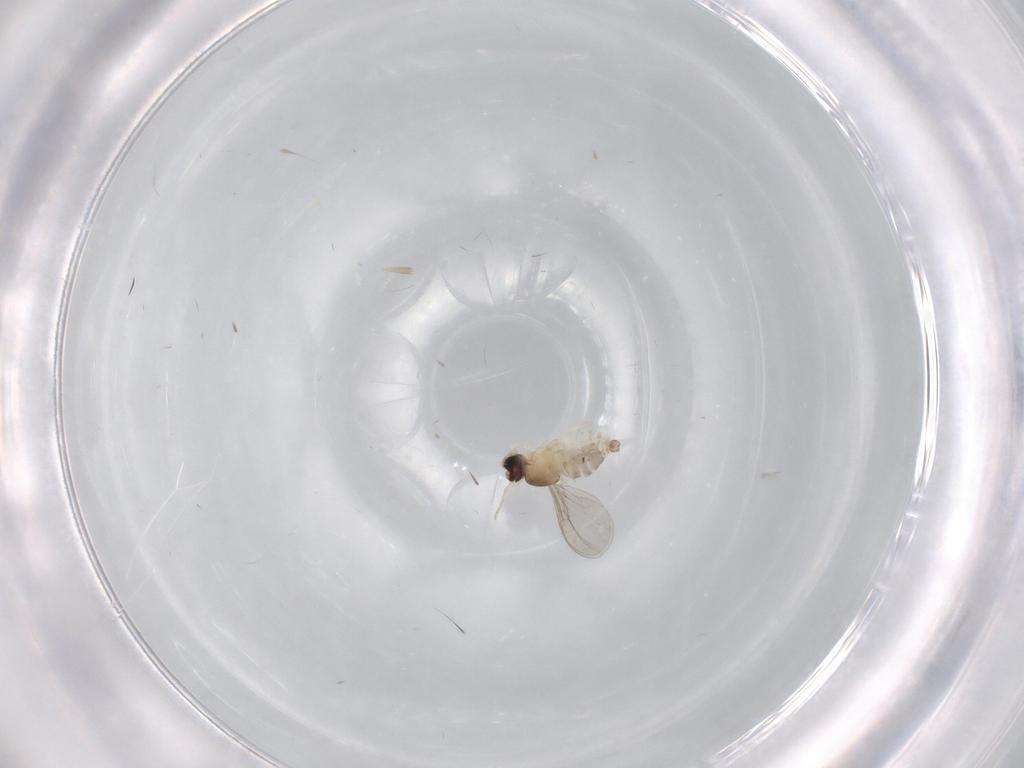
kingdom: Animalia
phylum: Arthropoda
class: Insecta
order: Diptera
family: Cecidomyiidae
